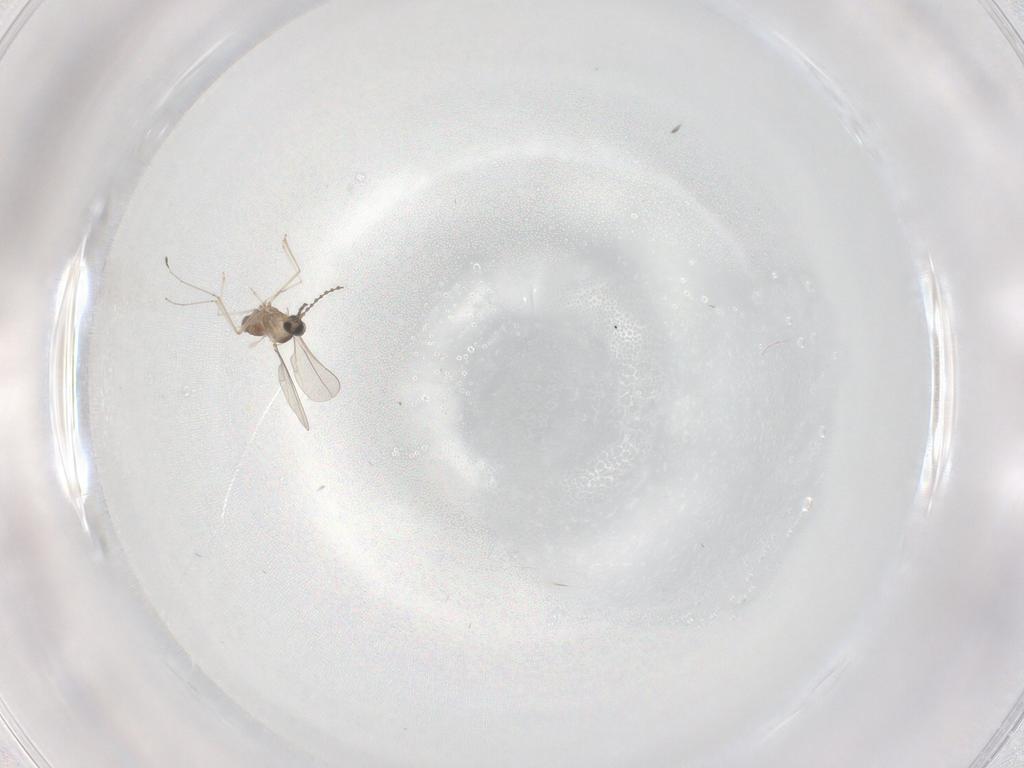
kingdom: Animalia
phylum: Arthropoda
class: Insecta
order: Diptera
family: Cecidomyiidae
